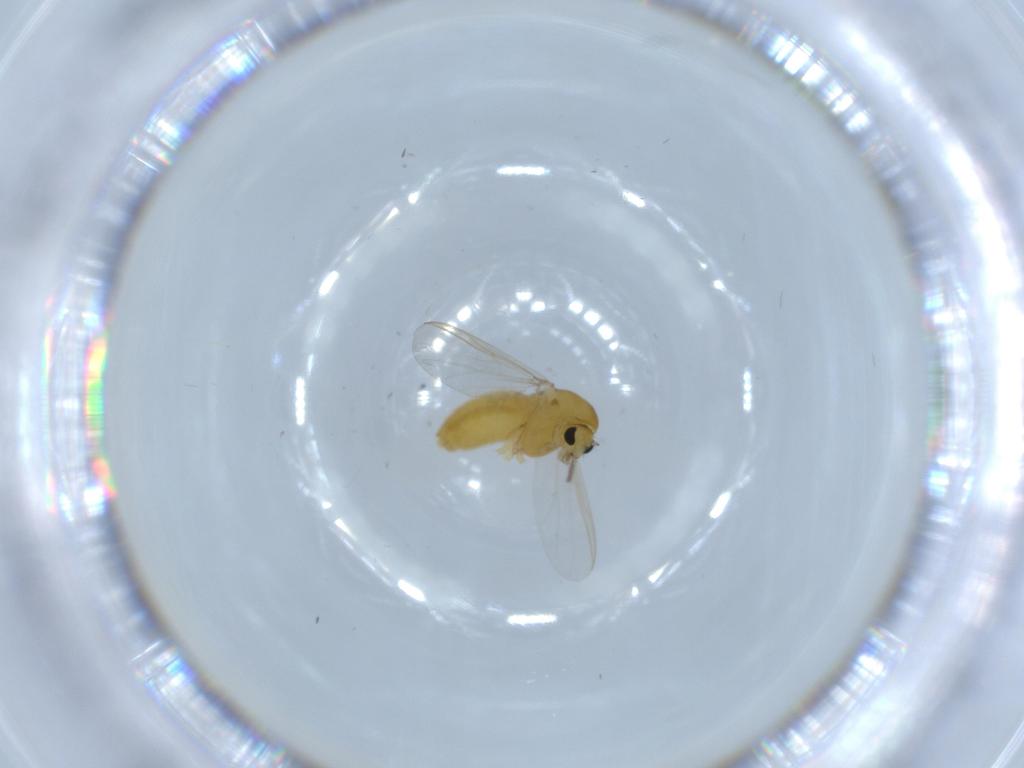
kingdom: Animalia
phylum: Arthropoda
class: Insecta
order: Diptera
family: Chironomidae
